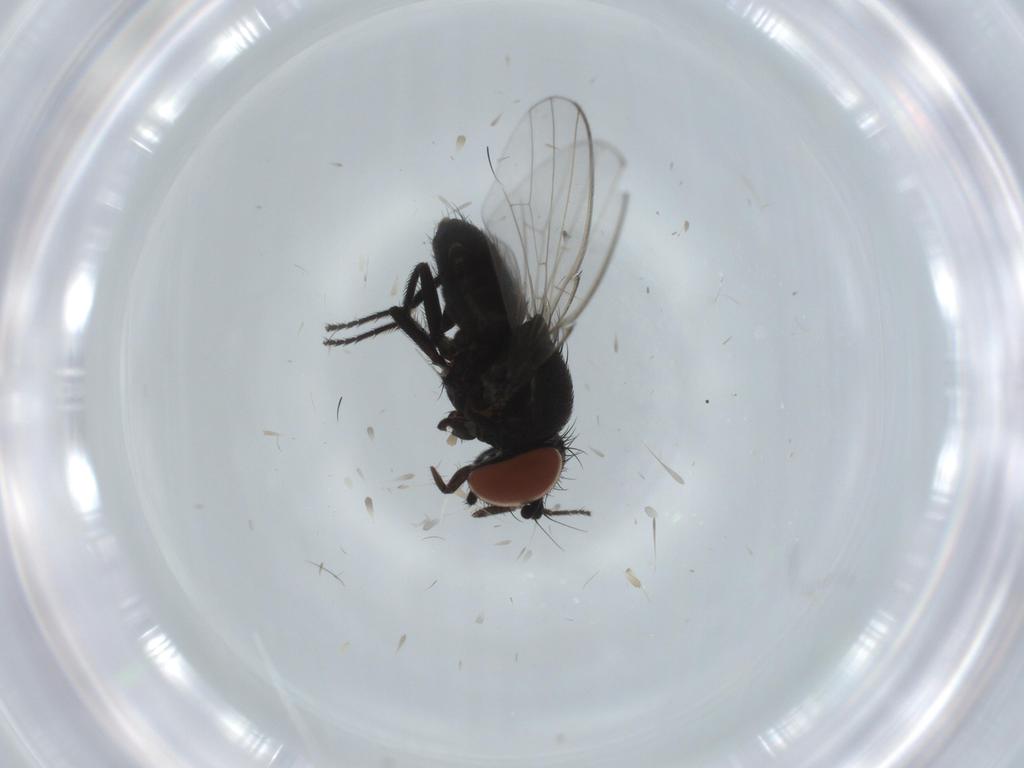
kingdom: Animalia
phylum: Arthropoda
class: Insecta
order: Diptera
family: Milichiidae
